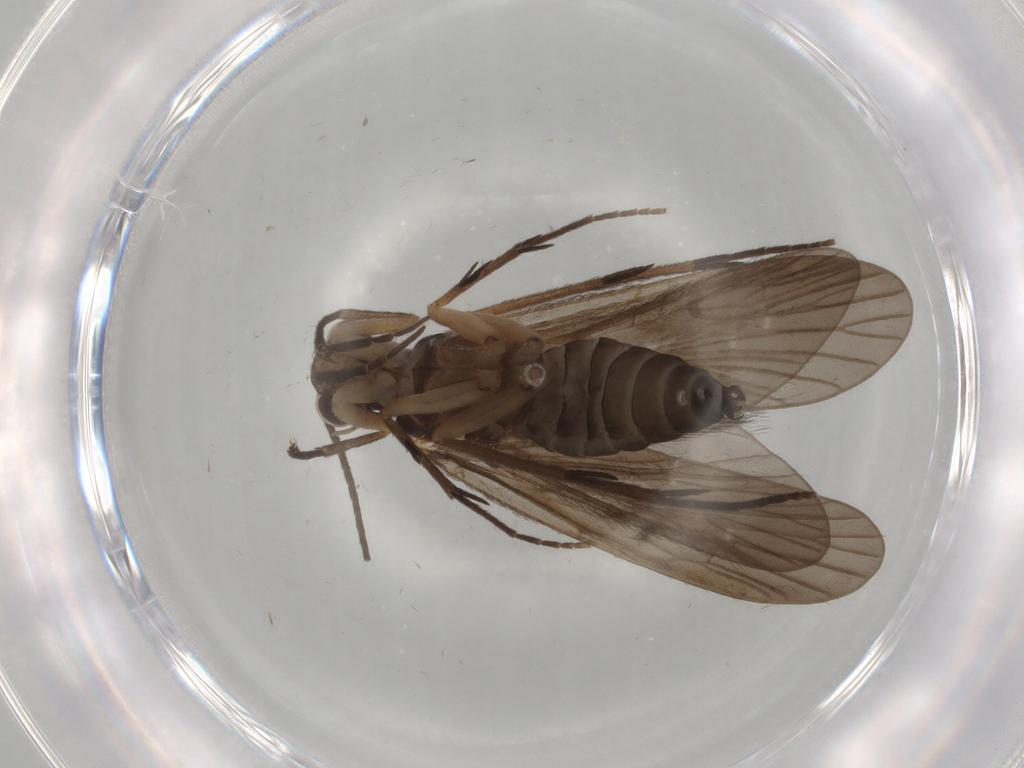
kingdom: Animalia
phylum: Arthropoda
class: Insecta
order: Trichoptera
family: Philopotamidae
